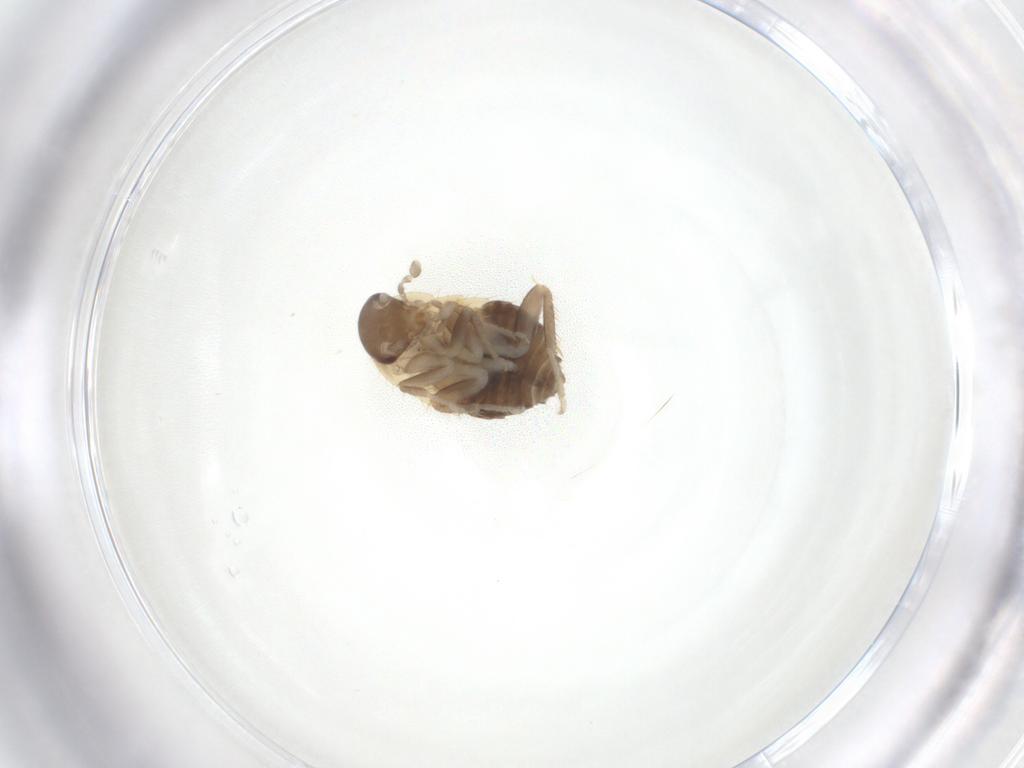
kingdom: Animalia
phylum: Arthropoda
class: Insecta
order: Blattodea
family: Ectobiidae
